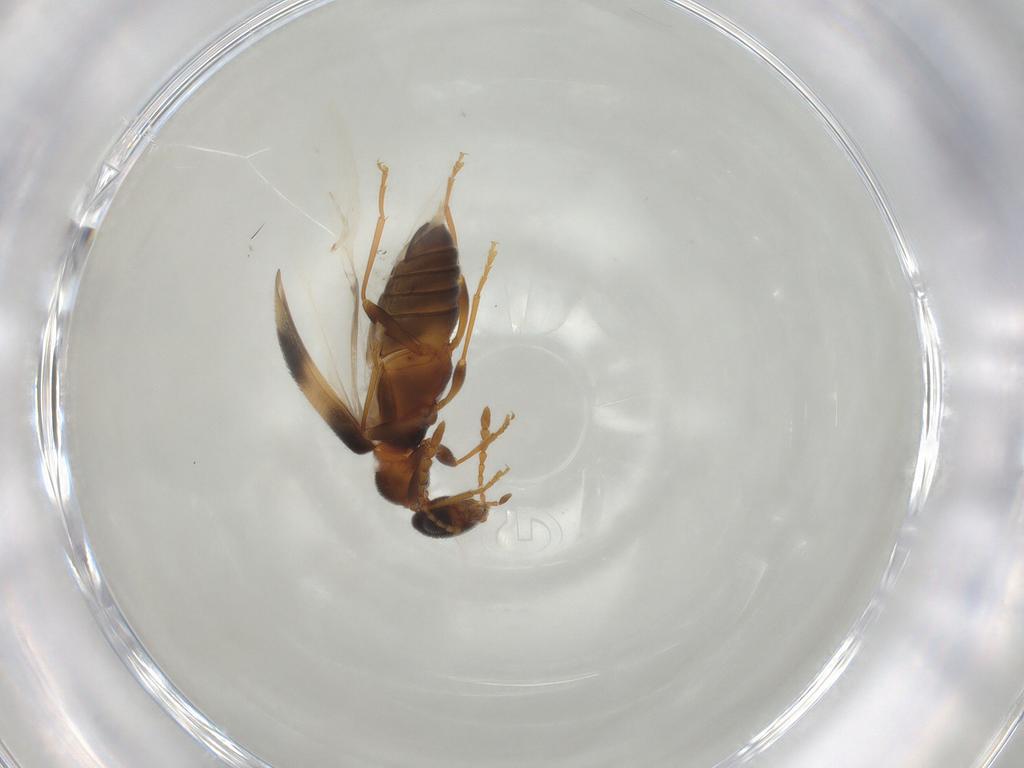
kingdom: Animalia
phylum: Arthropoda
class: Insecta
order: Coleoptera
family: Anthicidae
